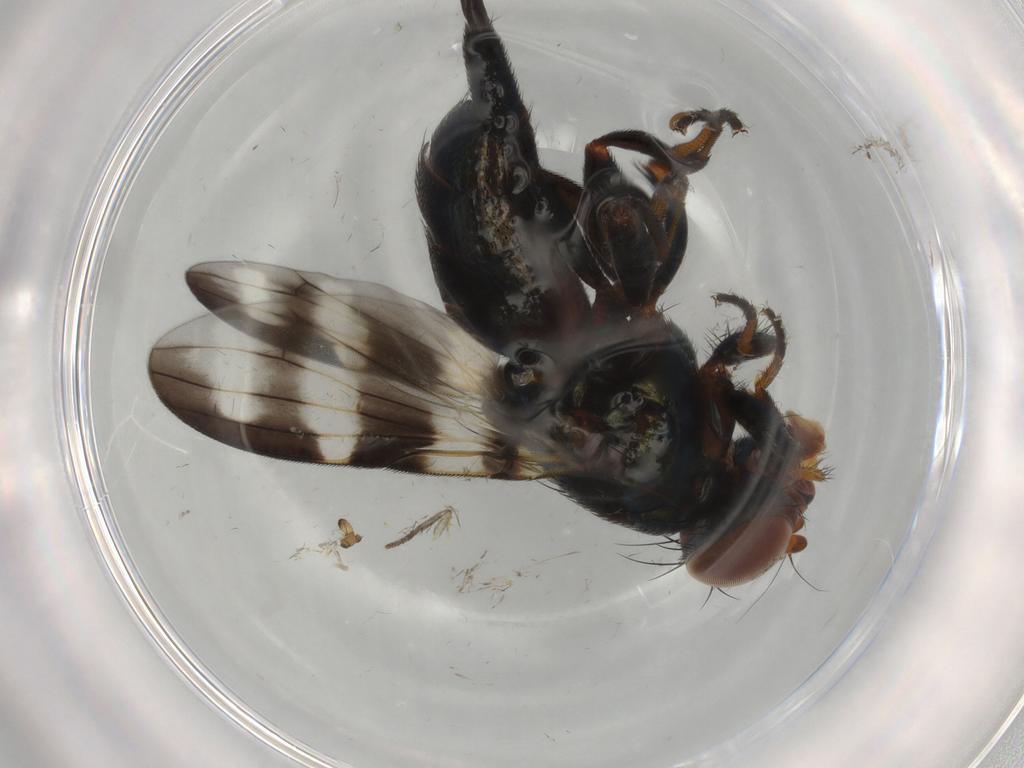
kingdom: Animalia
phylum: Arthropoda
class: Insecta
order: Diptera
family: Ulidiidae
